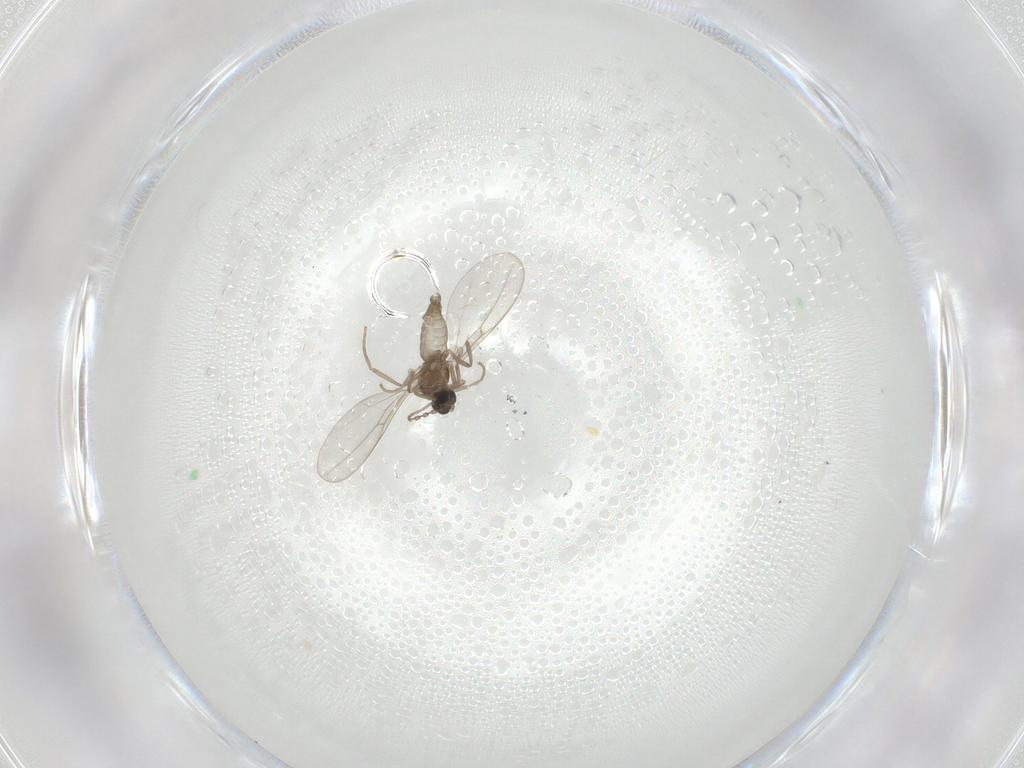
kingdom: Animalia
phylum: Arthropoda
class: Insecta
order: Diptera
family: Cecidomyiidae
